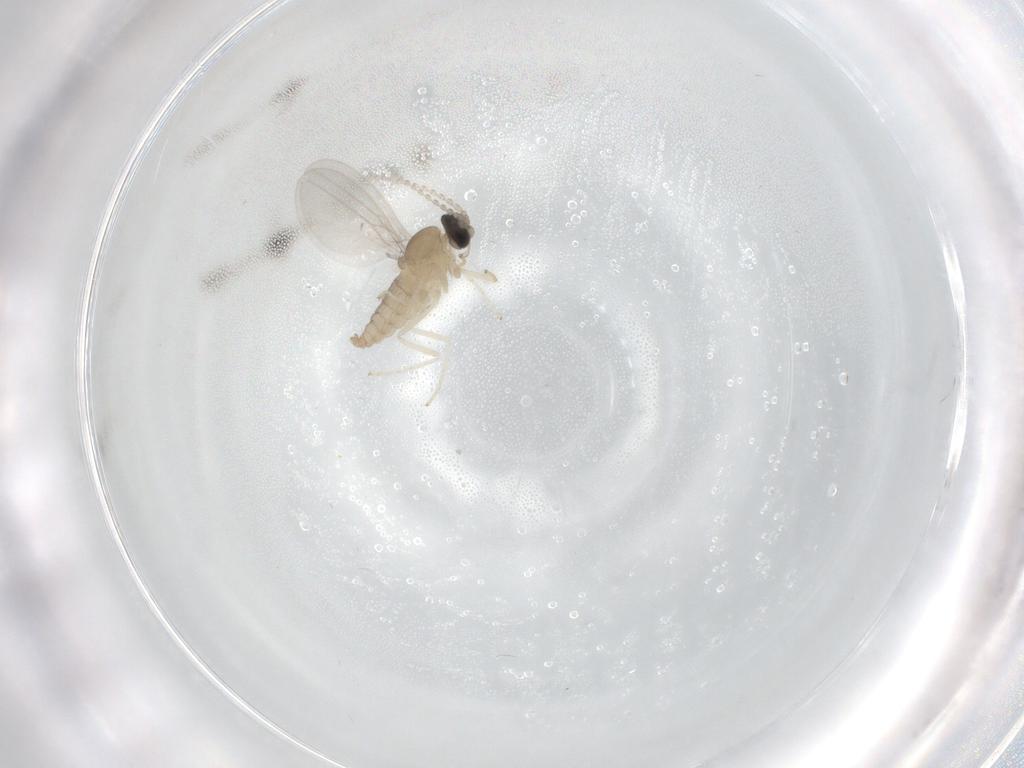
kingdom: Animalia
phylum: Arthropoda
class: Insecta
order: Diptera
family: Cecidomyiidae
